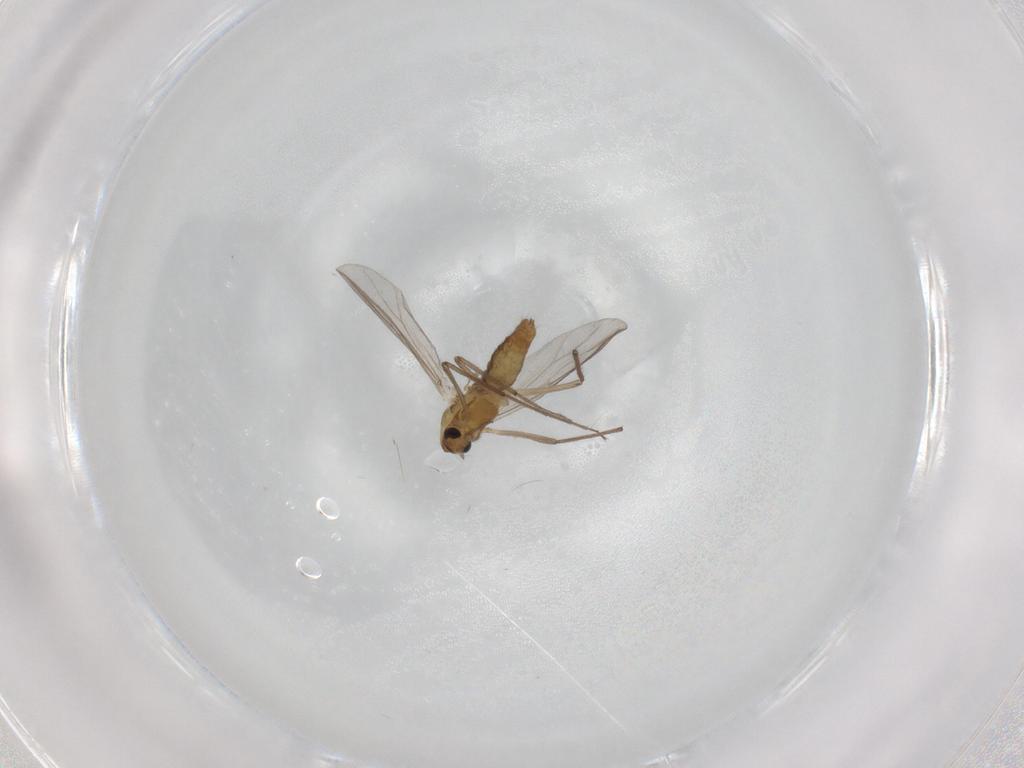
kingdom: Animalia
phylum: Arthropoda
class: Insecta
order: Diptera
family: Chironomidae
